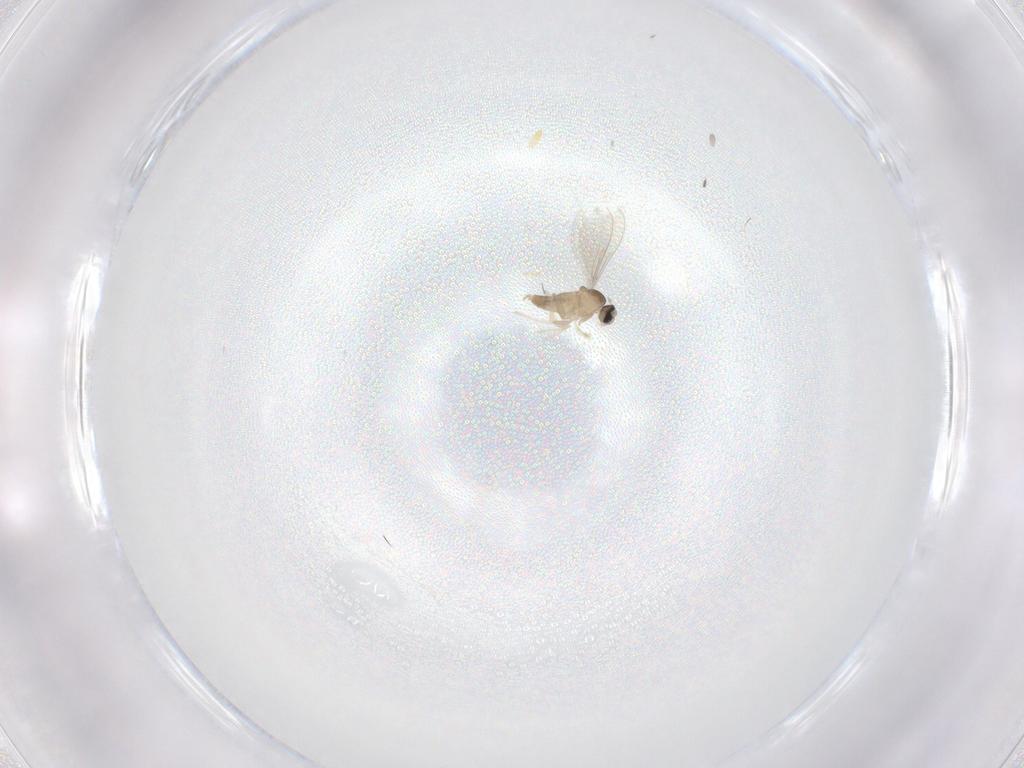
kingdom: Animalia
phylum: Arthropoda
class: Insecta
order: Diptera
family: Cecidomyiidae
